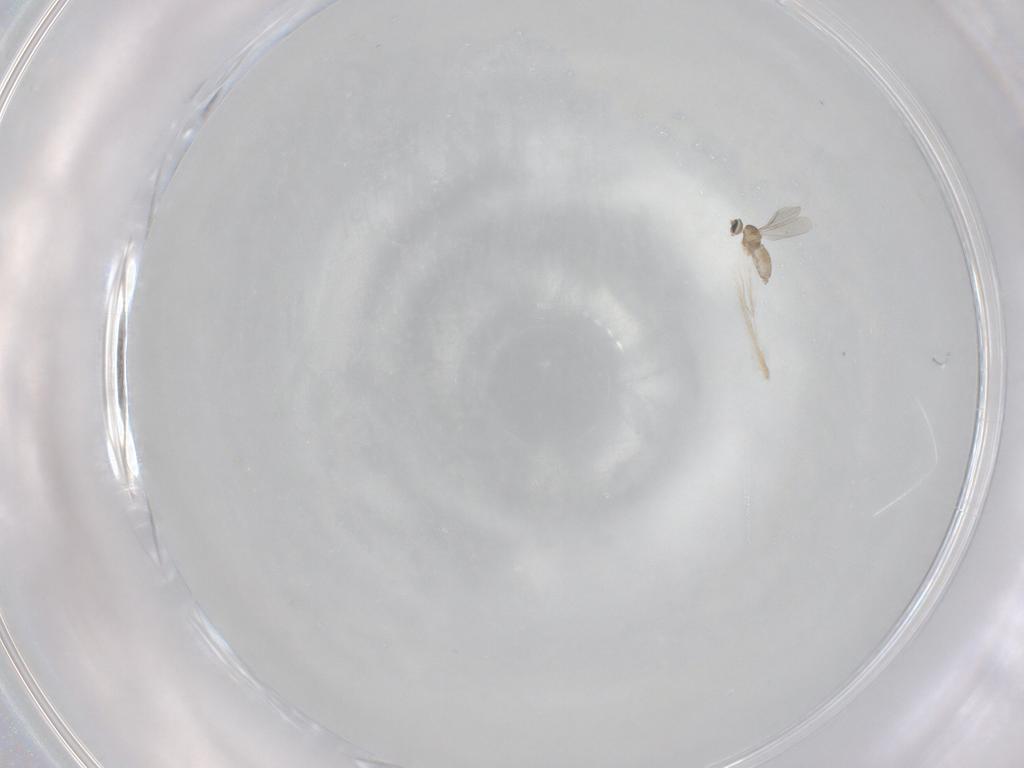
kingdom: Animalia
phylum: Arthropoda
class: Insecta
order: Diptera
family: Cecidomyiidae
